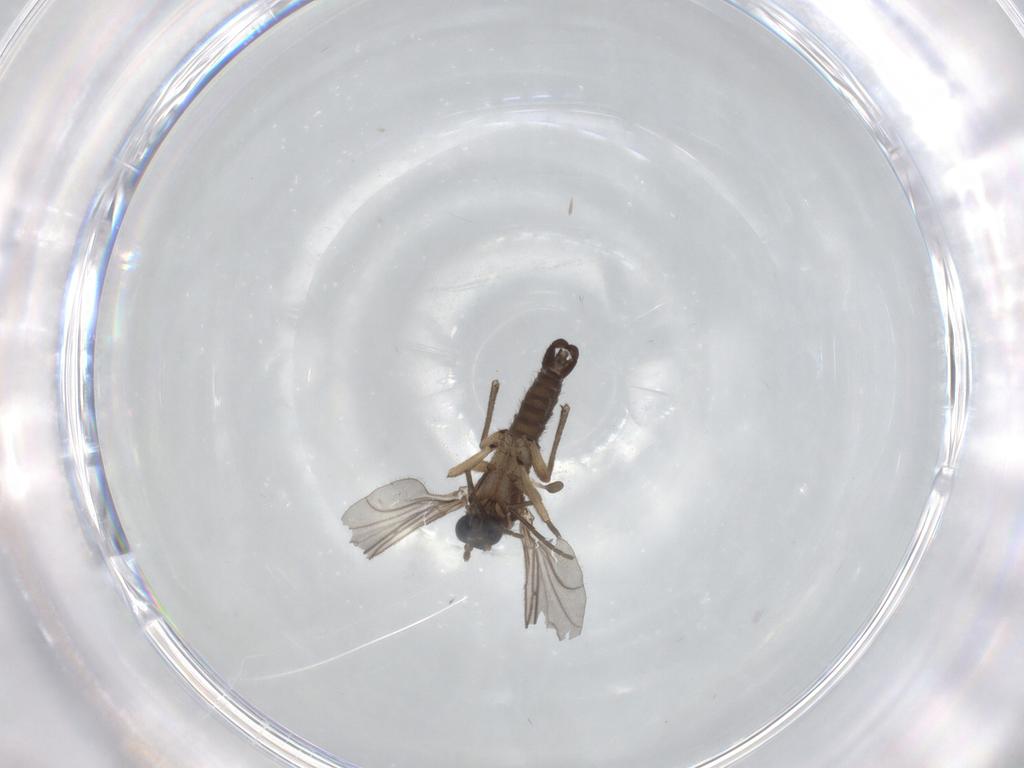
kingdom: Animalia
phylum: Arthropoda
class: Insecta
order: Diptera
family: Sciaridae
